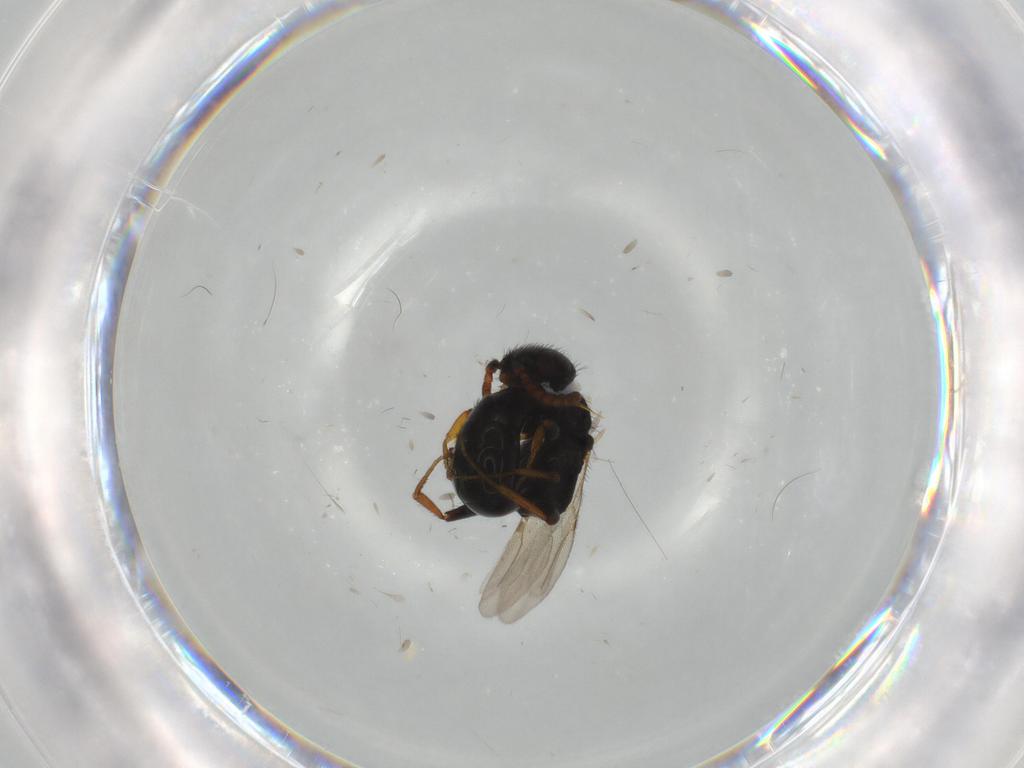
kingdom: Animalia
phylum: Arthropoda
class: Insecta
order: Hymenoptera
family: Bethylidae
